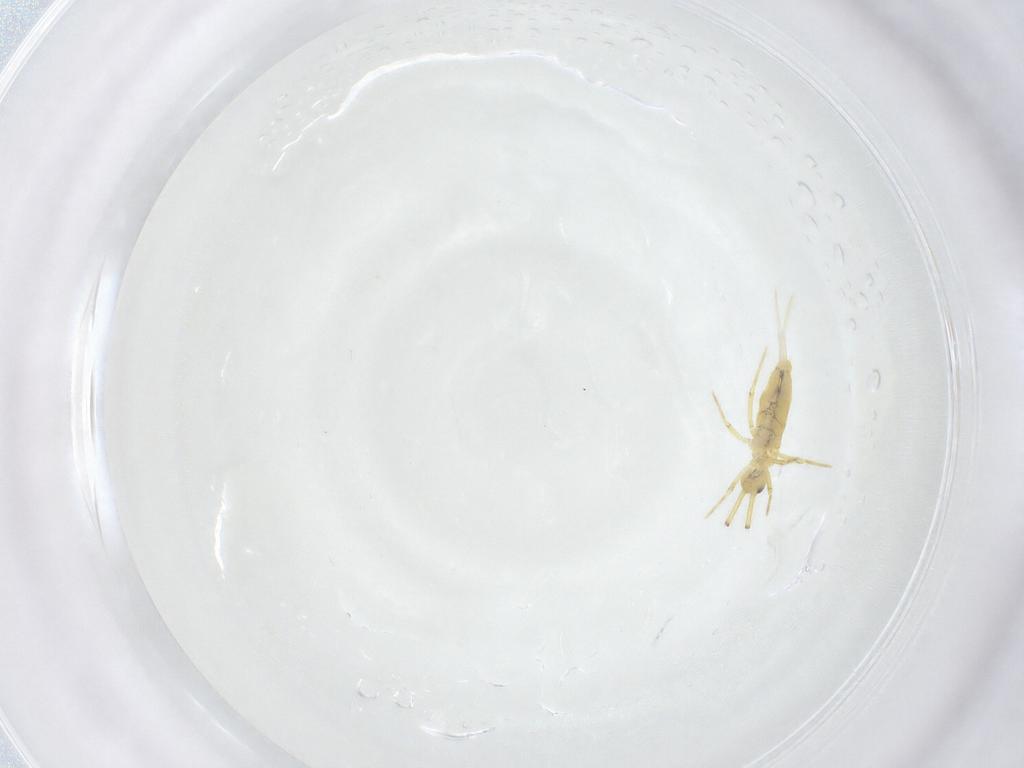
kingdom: Animalia
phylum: Arthropoda
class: Collembola
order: Entomobryomorpha
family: Paronellidae
